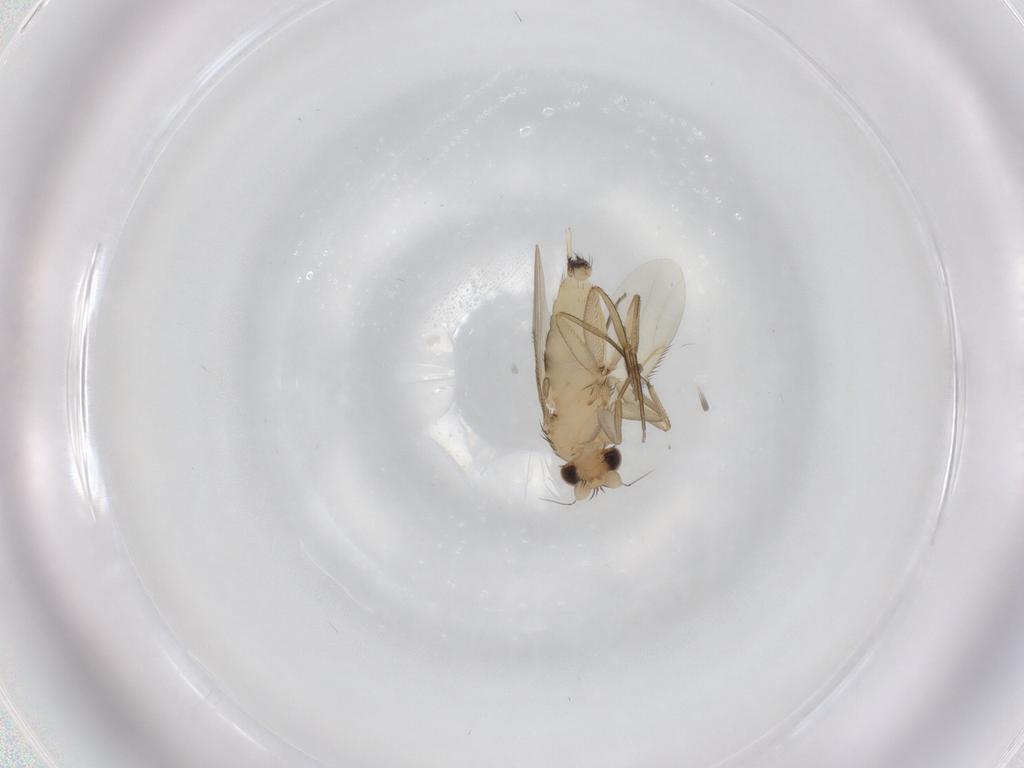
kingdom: Animalia
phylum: Arthropoda
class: Insecta
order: Diptera
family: Phoridae
